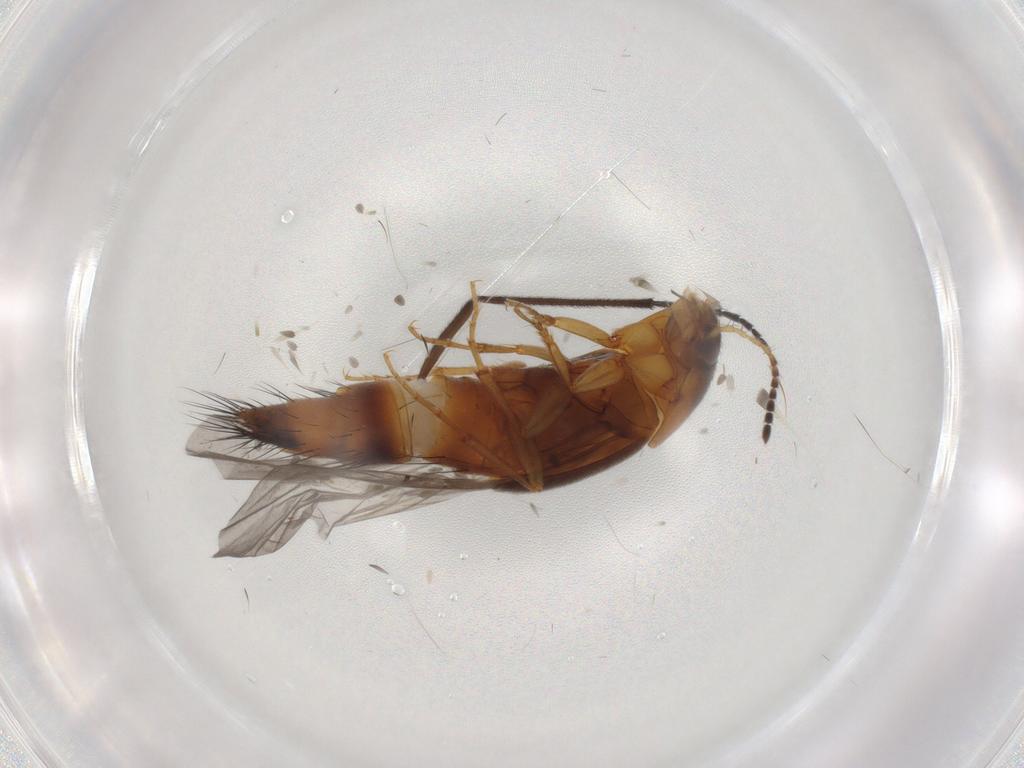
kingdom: Animalia
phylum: Arthropoda
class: Insecta
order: Coleoptera
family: Staphylinidae
